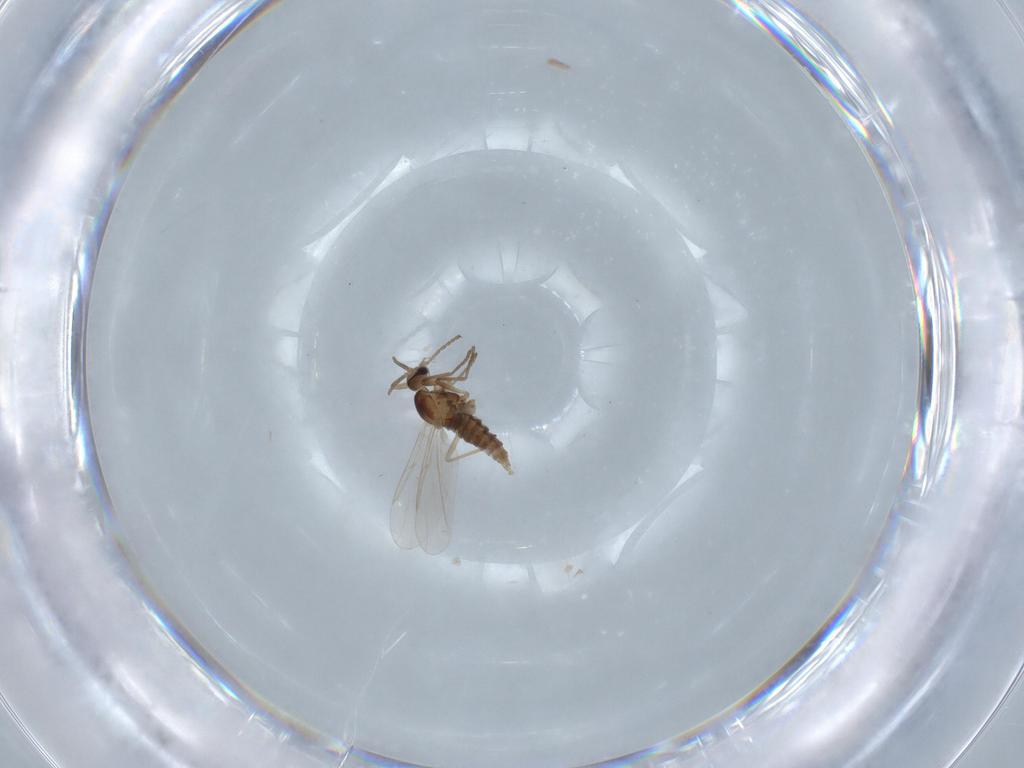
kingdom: Animalia
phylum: Arthropoda
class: Insecta
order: Diptera
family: Cecidomyiidae
